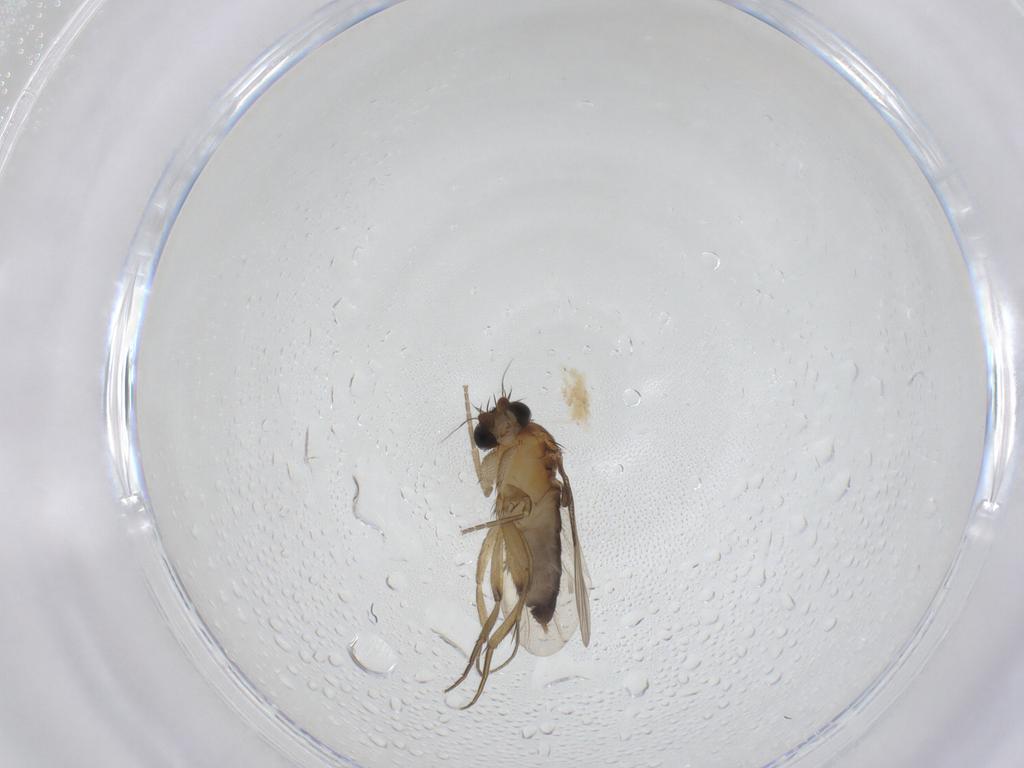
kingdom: Animalia
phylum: Arthropoda
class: Insecta
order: Diptera
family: Phoridae
